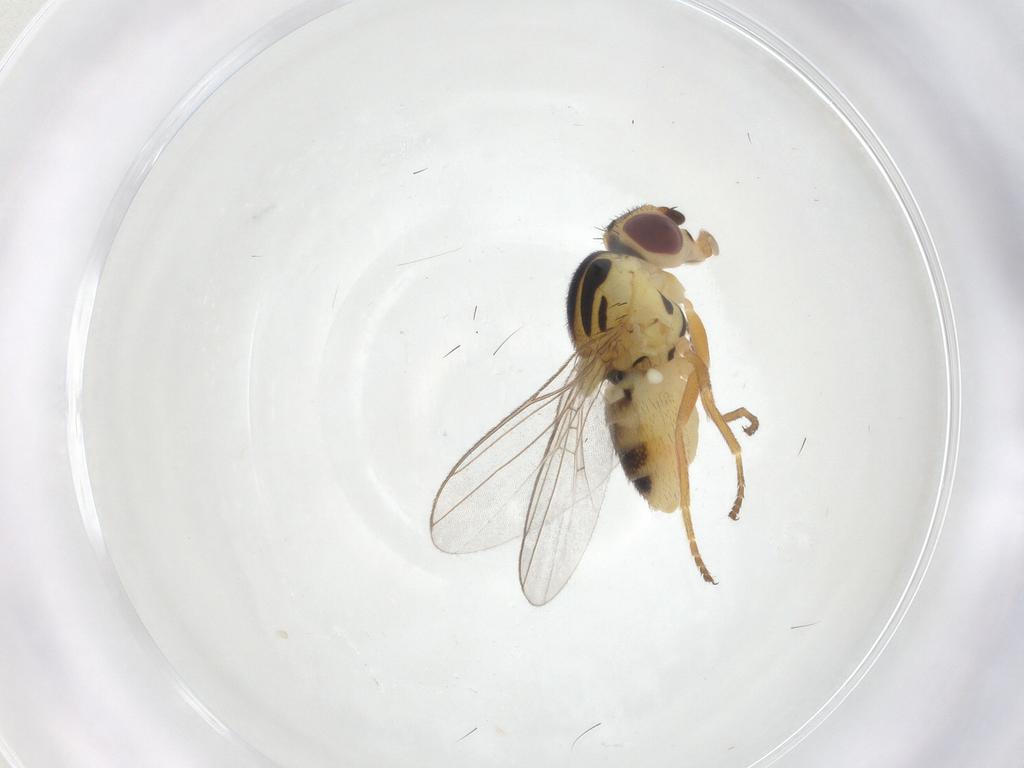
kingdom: Animalia
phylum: Arthropoda
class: Insecta
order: Diptera
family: Chloropidae
